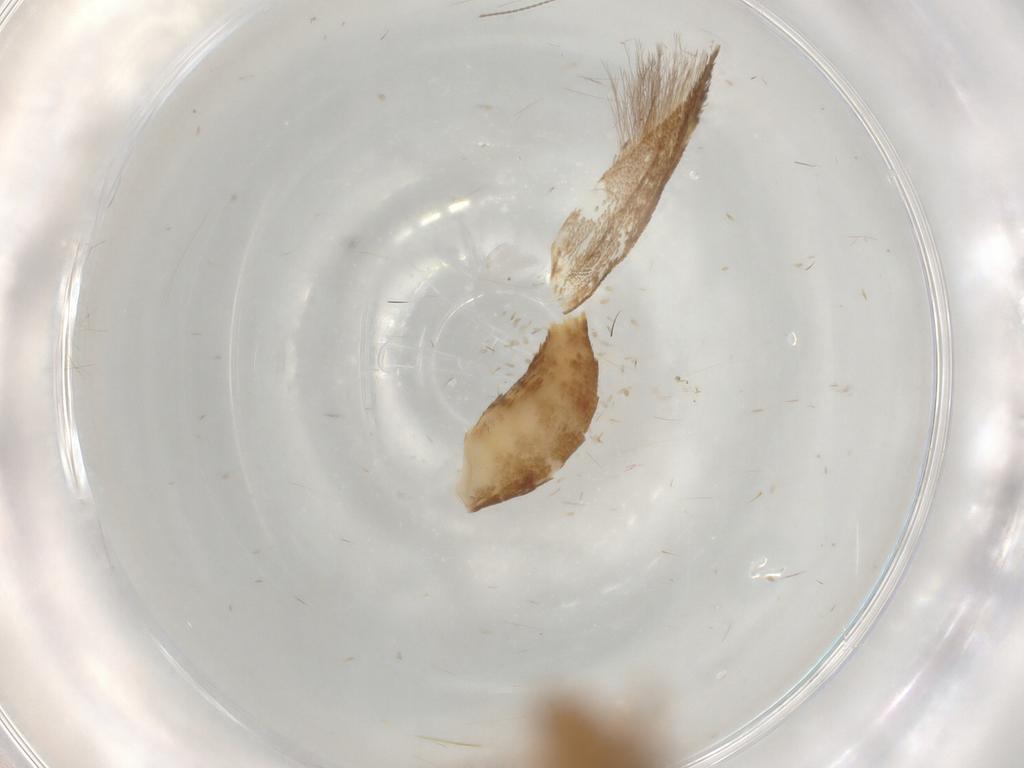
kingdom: Animalia
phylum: Arthropoda
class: Insecta
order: Lepidoptera
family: Cosmopterigidae
